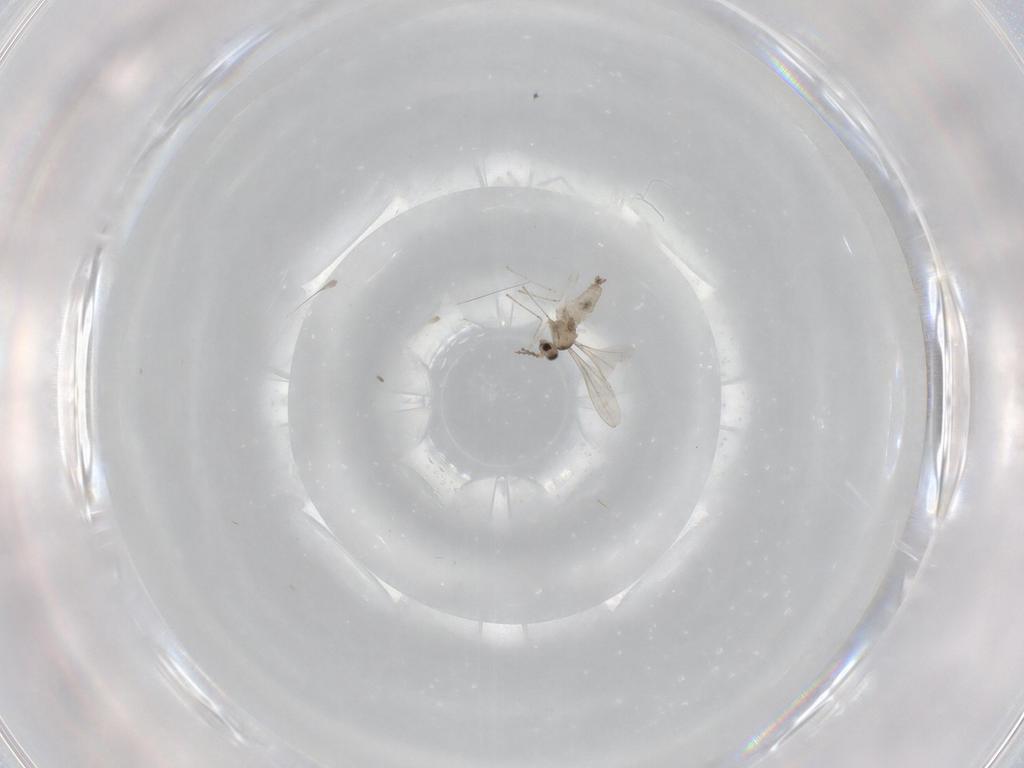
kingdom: Animalia
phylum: Arthropoda
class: Insecta
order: Diptera
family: Cecidomyiidae
